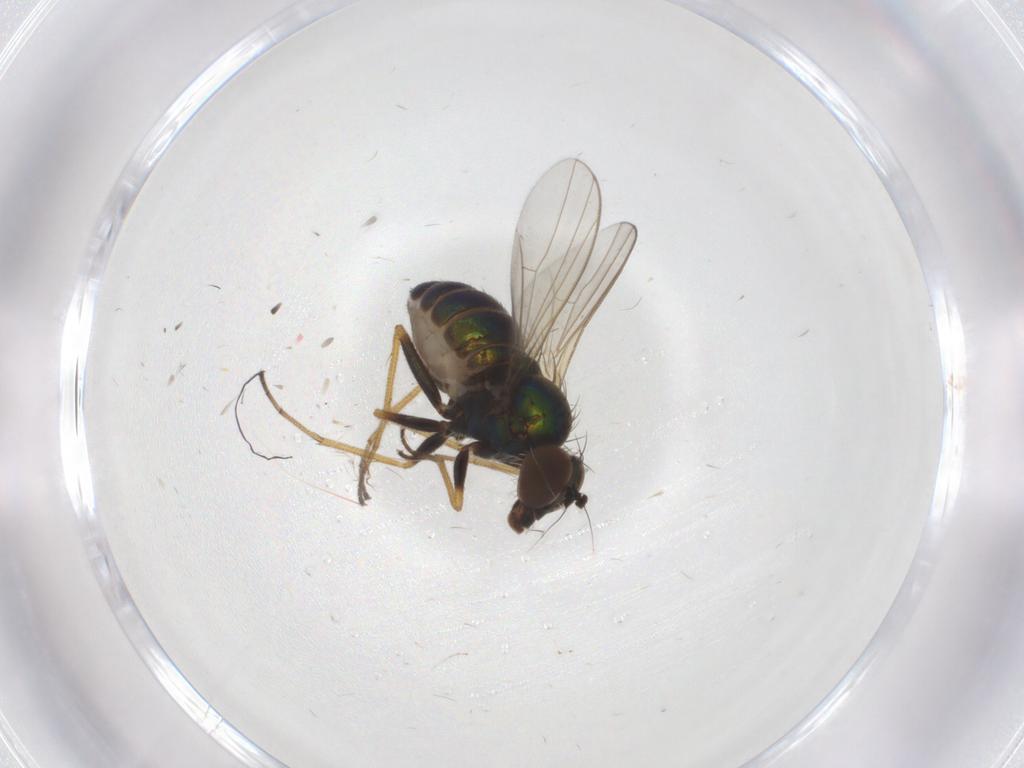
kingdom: Animalia
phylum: Arthropoda
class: Insecta
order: Diptera
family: Dolichopodidae
